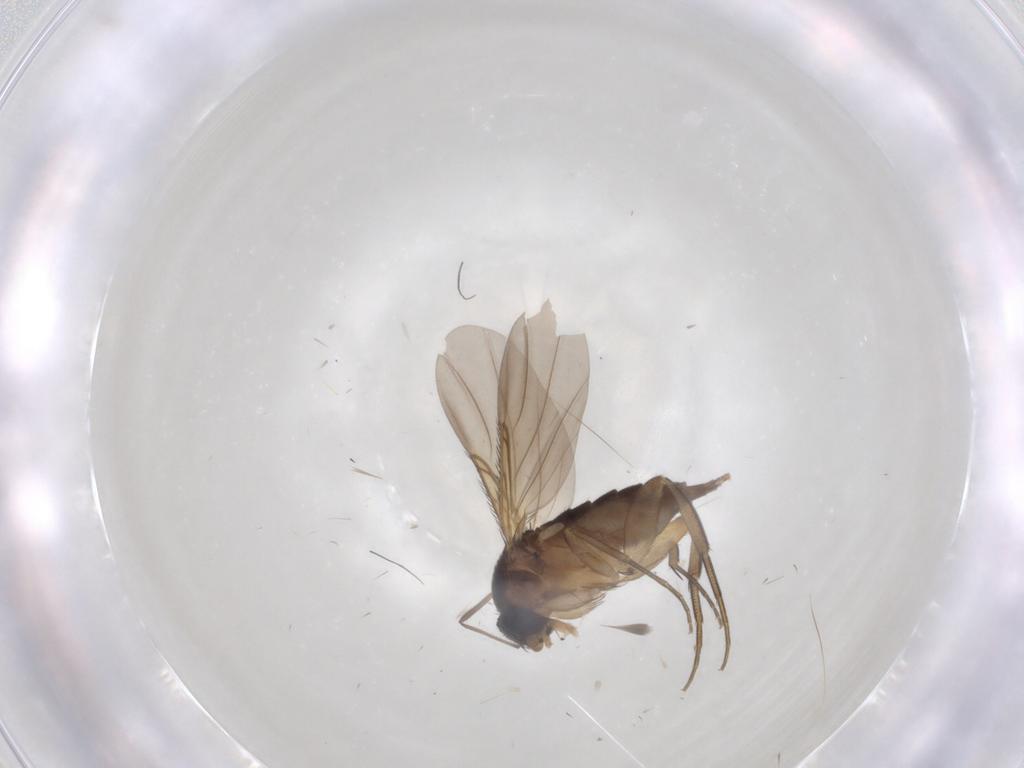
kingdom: Animalia
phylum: Arthropoda
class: Insecta
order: Diptera
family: Phoridae
